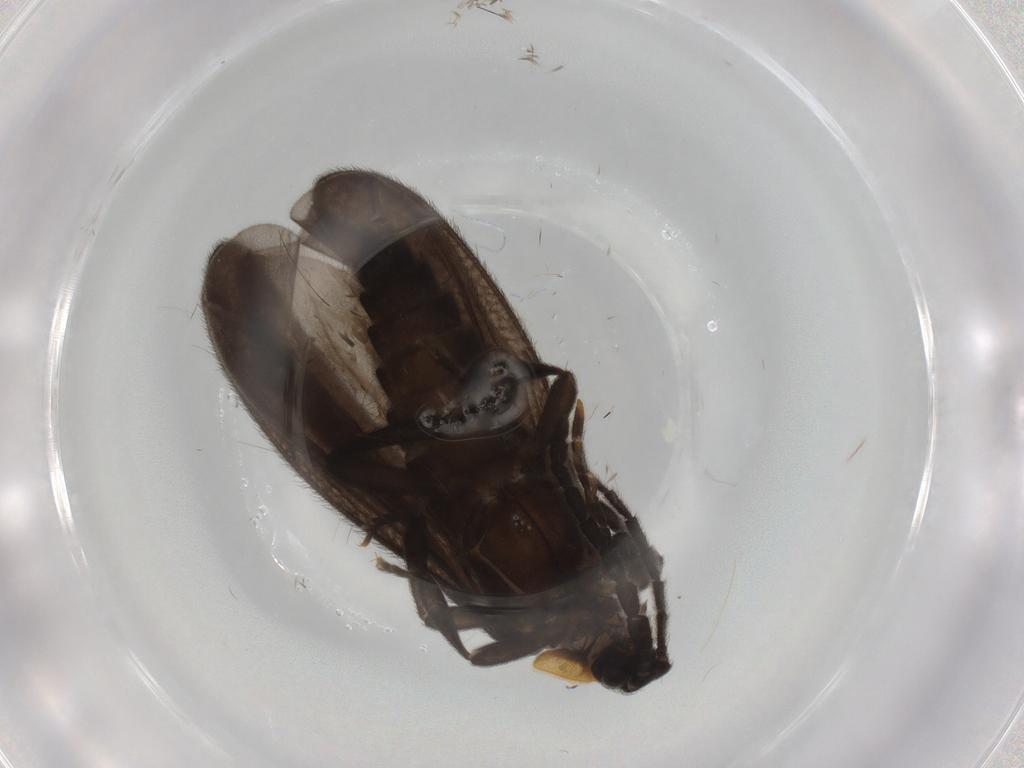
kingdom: Animalia
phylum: Arthropoda
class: Insecta
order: Coleoptera
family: Lycidae
